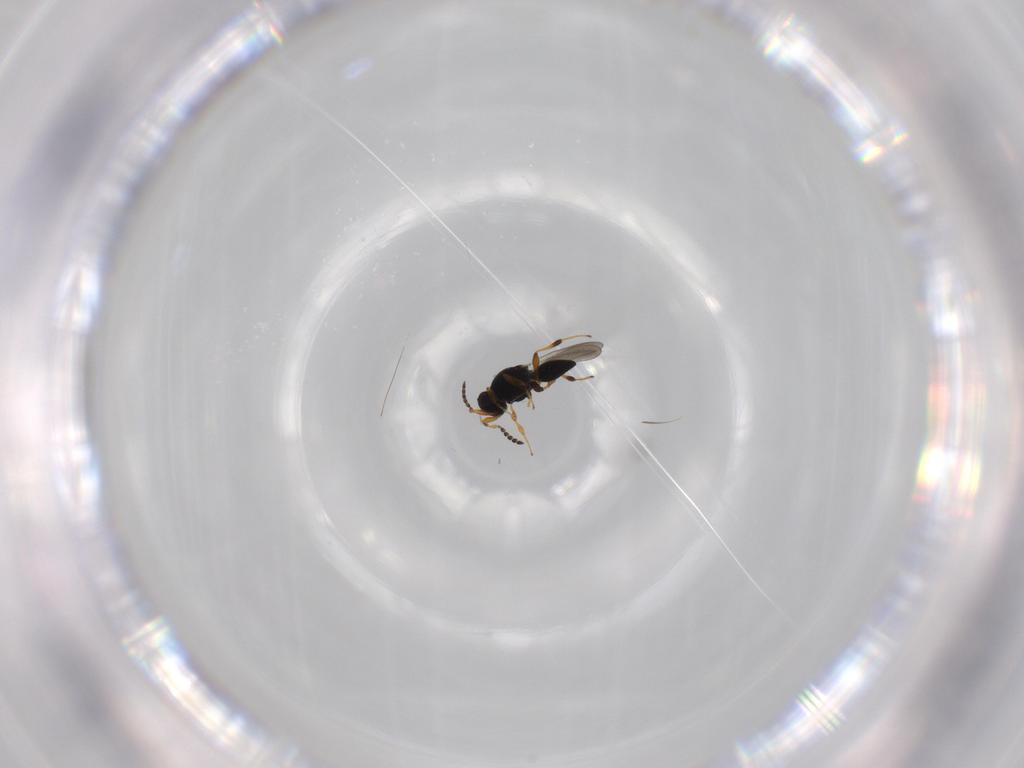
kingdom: Animalia
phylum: Arthropoda
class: Insecta
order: Hymenoptera
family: Platygastridae
